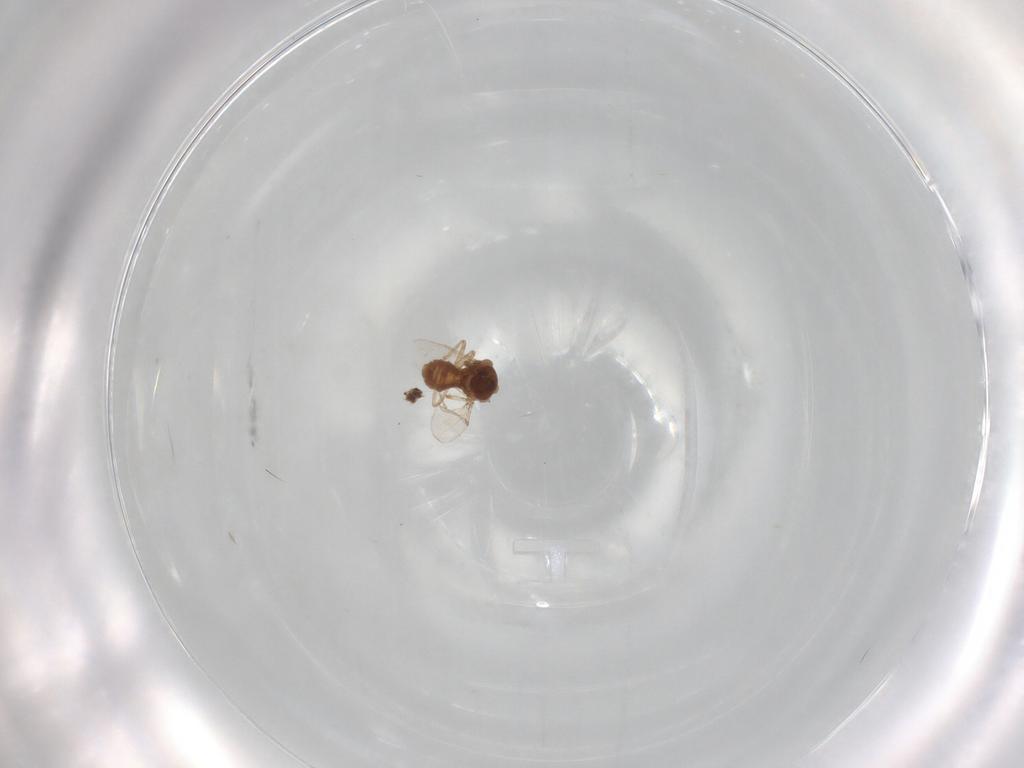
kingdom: Animalia
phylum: Arthropoda
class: Insecta
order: Diptera
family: Ceratopogonidae
